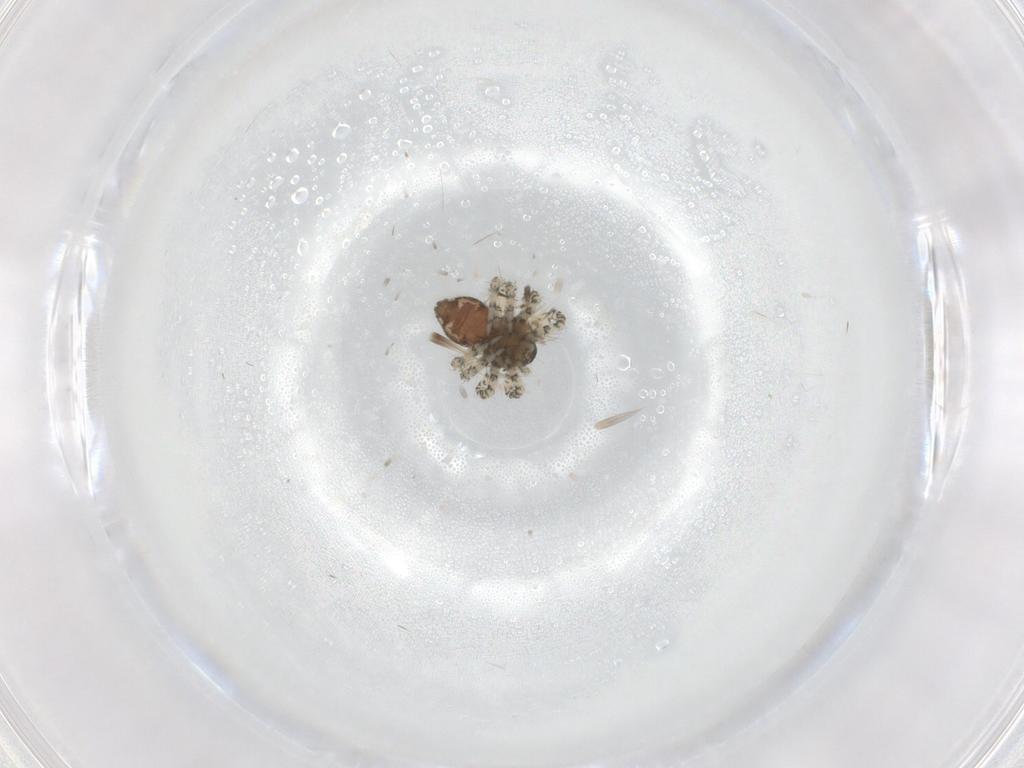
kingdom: Animalia
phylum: Arthropoda
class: Arachnida
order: Araneae
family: Theridiidae
